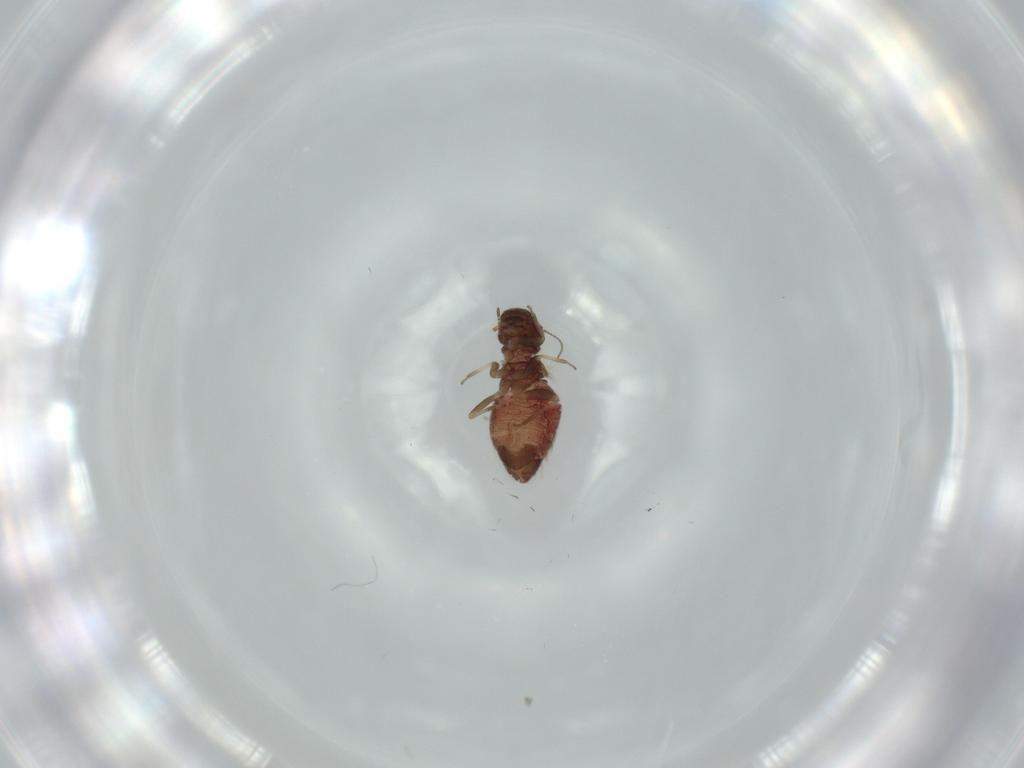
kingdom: Animalia
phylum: Arthropoda
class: Insecta
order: Psocodea
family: Archipsocidae
